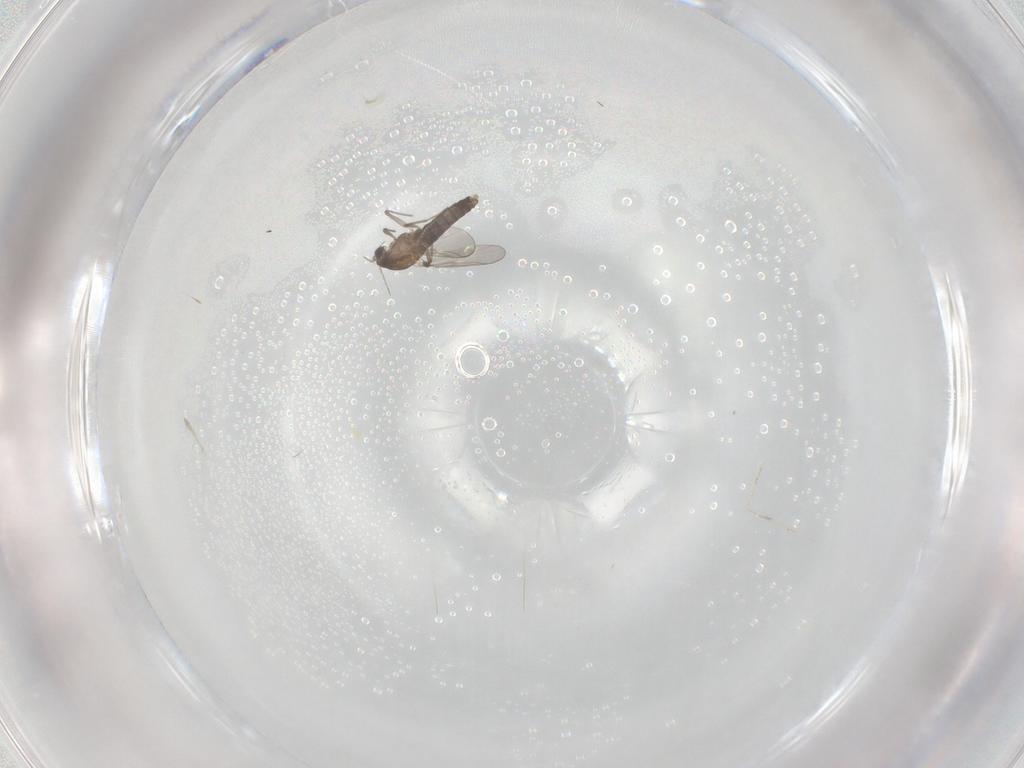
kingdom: Animalia
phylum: Arthropoda
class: Insecta
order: Diptera
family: Chironomidae
